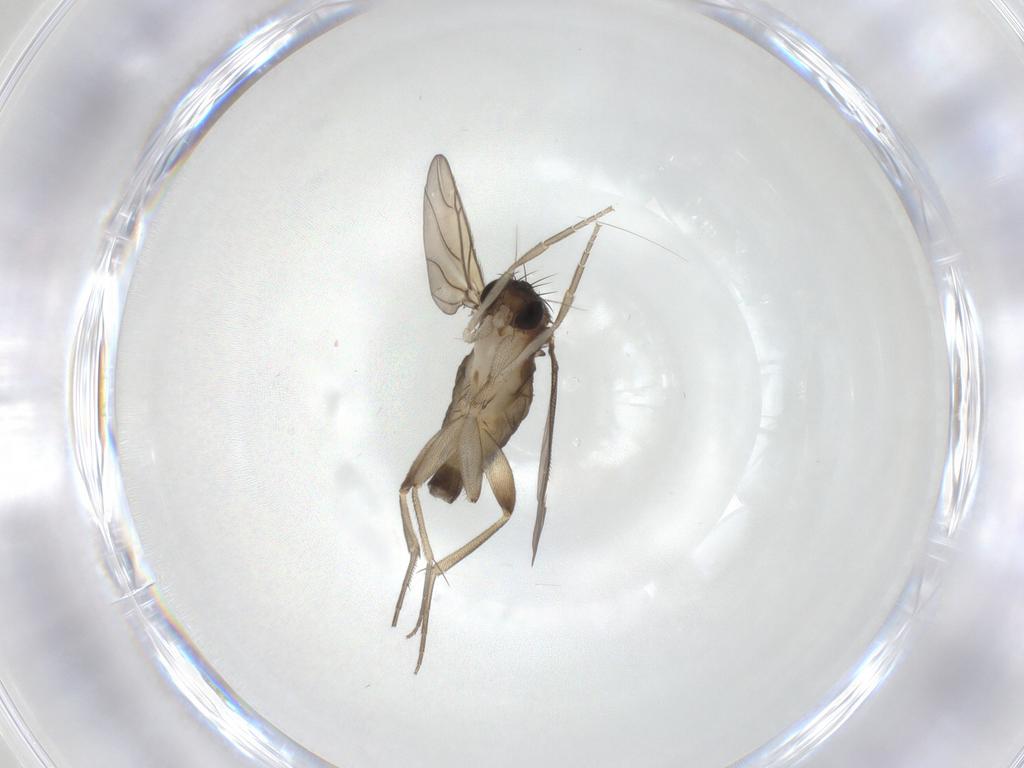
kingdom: Animalia
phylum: Arthropoda
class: Insecta
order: Diptera
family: Phoridae
